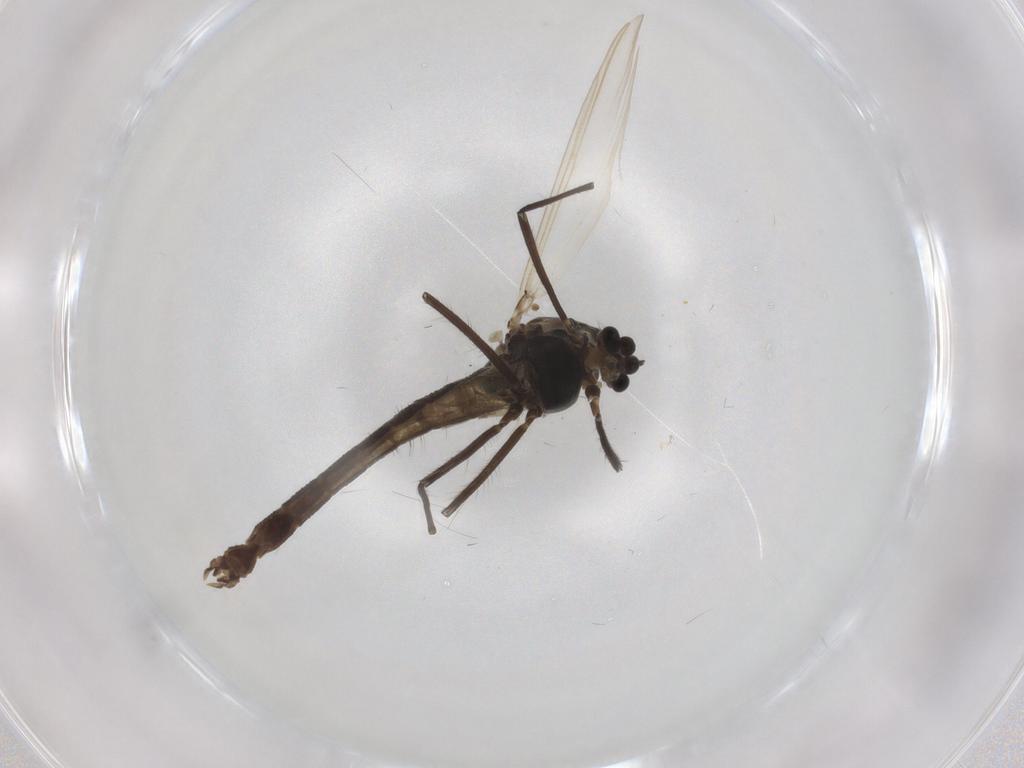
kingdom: Animalia
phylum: Arthropoda
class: Insecta
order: Diptera
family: Chironomidae
